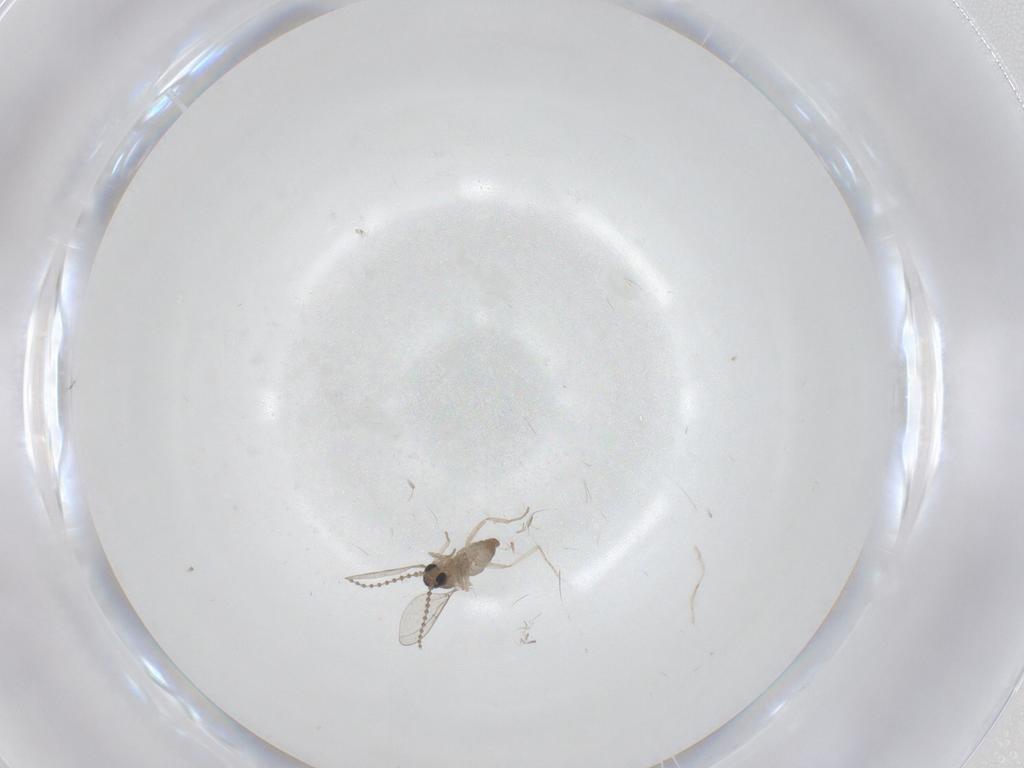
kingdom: Animalia
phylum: Arthropoda
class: Insecta
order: Diptera
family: Cecidomyiidae
